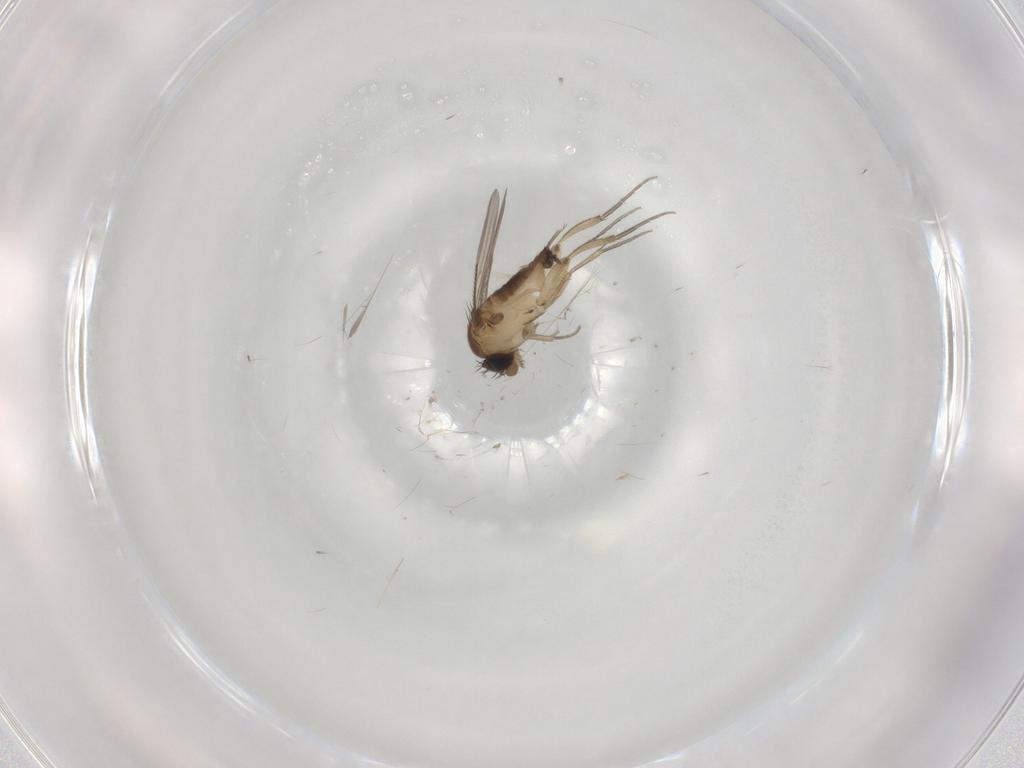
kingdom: Animalia
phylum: Arthropoda
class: Insecta
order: Diptera
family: Phoridae
